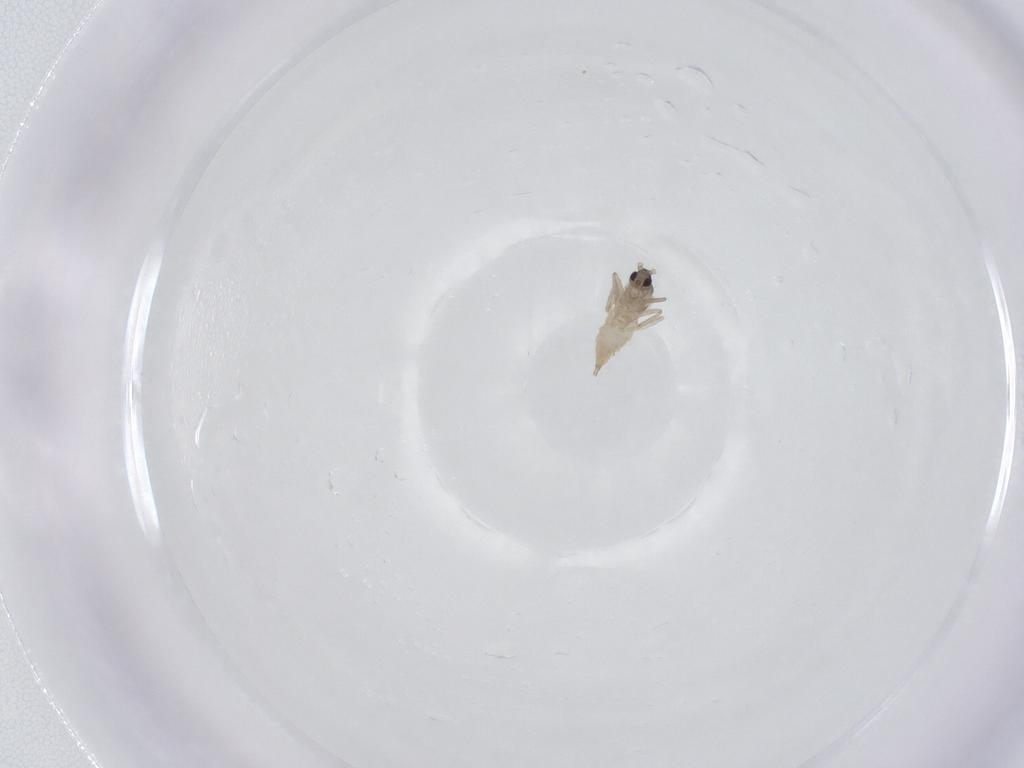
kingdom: Animalia
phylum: Arthropoda
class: Insecta
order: Diptera
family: Cecidomyiidae
